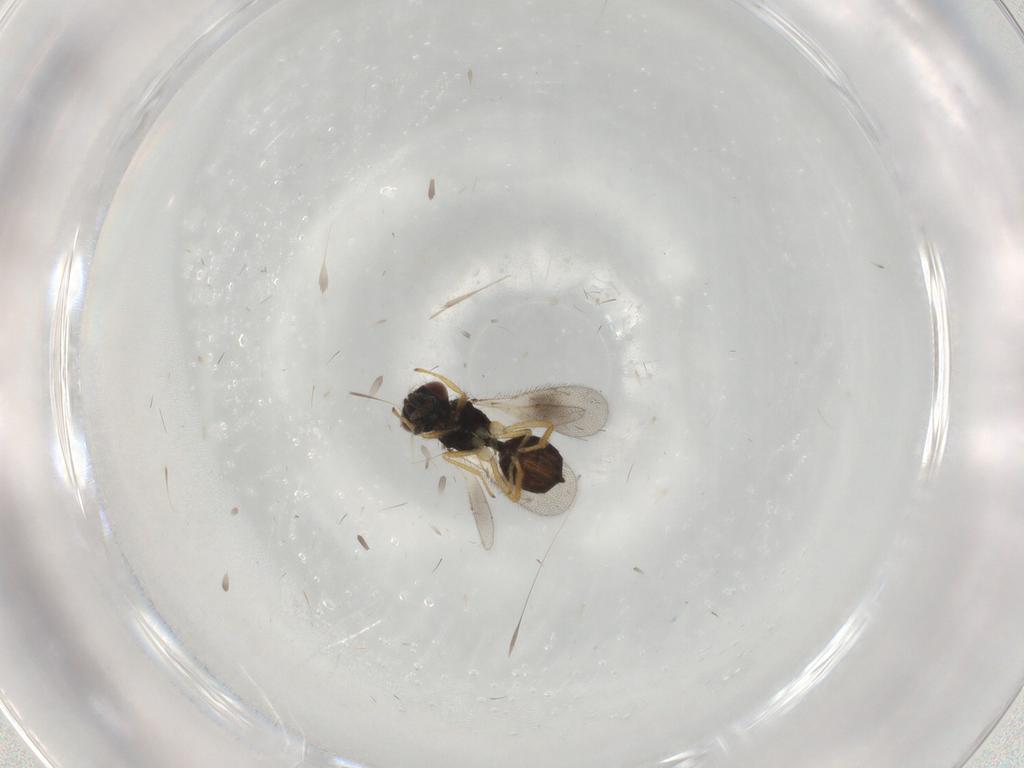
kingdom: Animalia
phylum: Arthropoda
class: Insecta
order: Hymenoptera
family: Eulophidae
